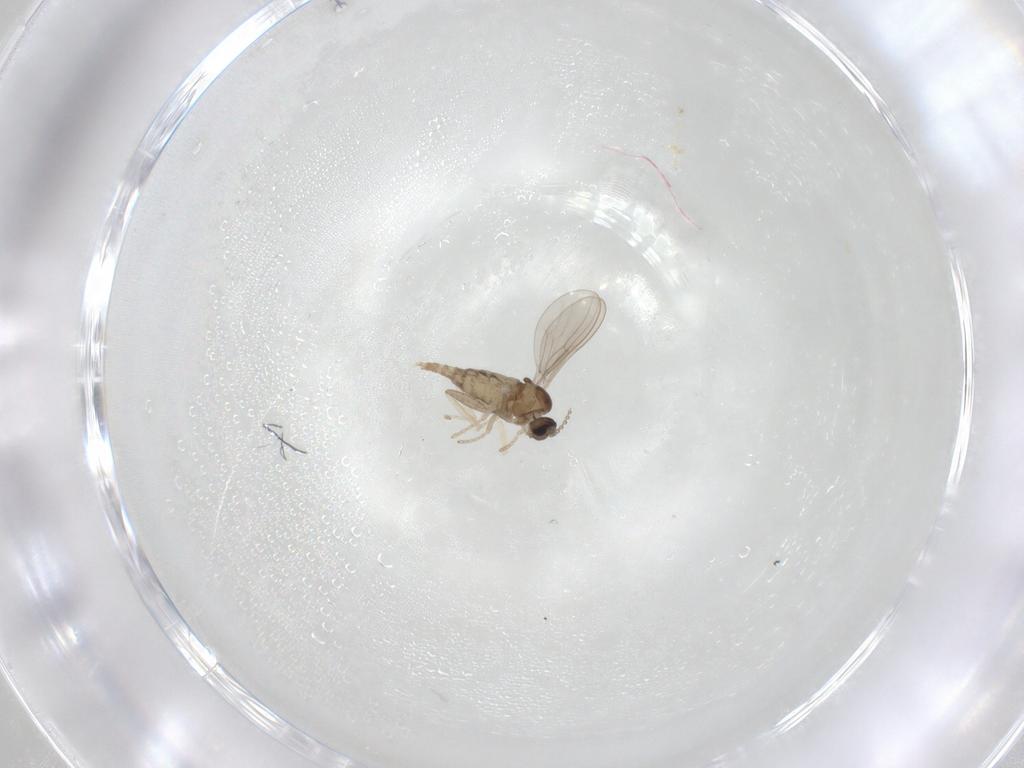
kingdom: Animalia
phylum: Arthropoda
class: Insecta
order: Diptera
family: Cecidomyiidae
